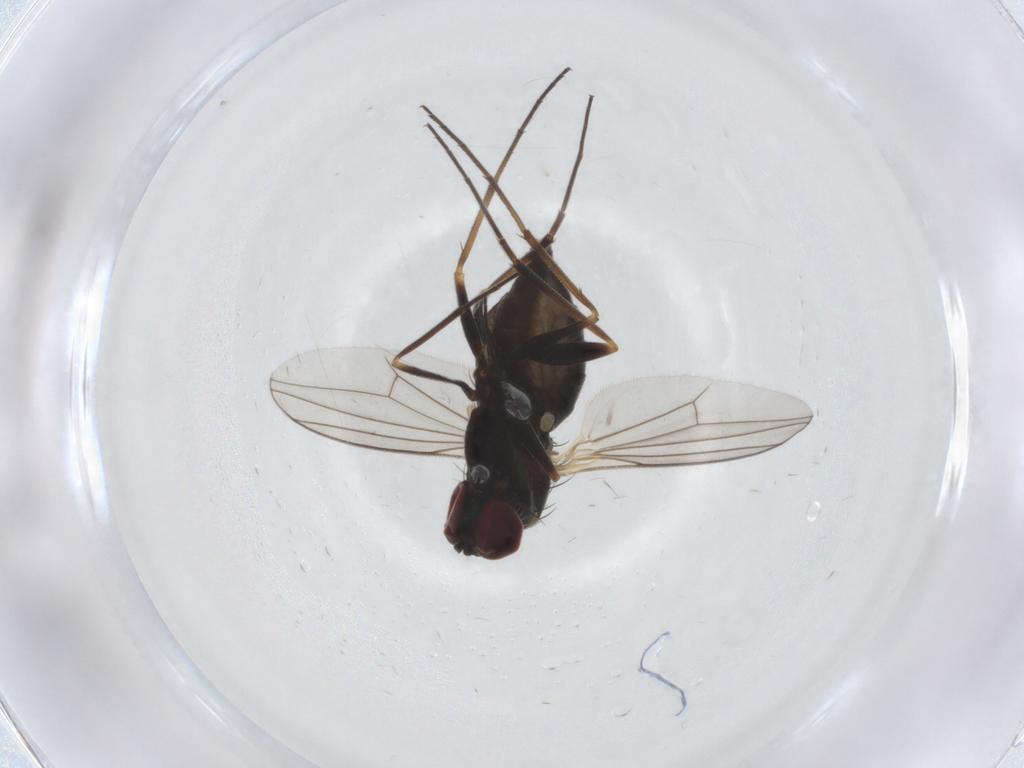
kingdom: Animalia
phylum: Arthropoda
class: Insecta
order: Diptera
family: Dolichopodidae
